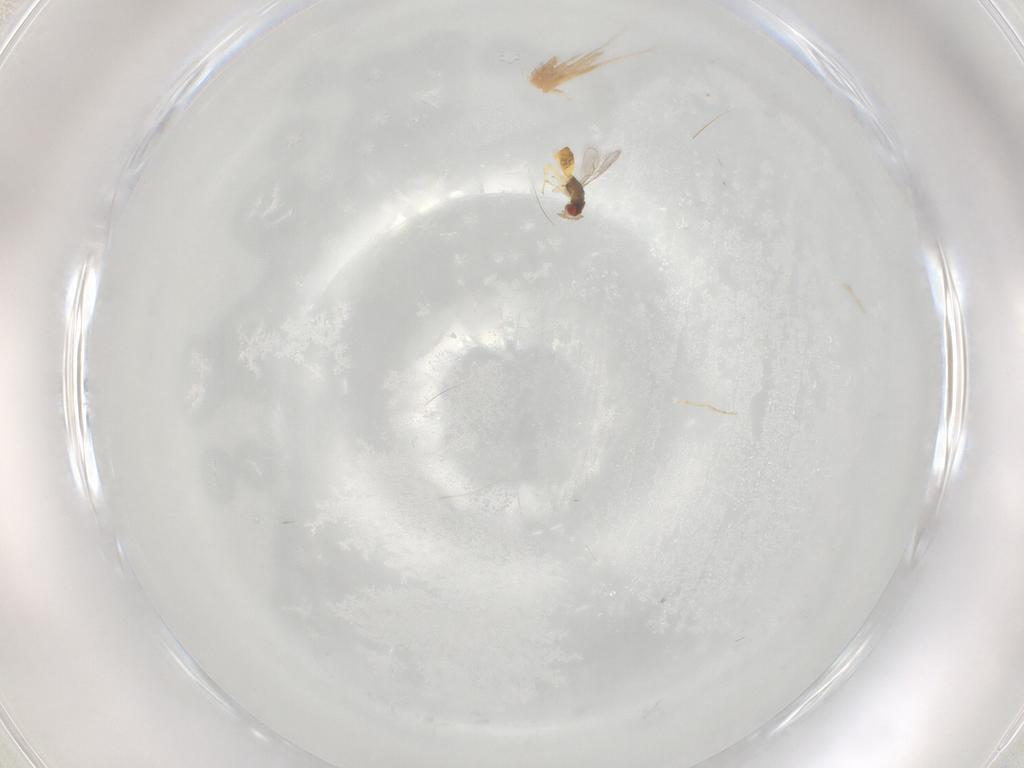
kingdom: Animalia
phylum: Arthropoda
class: Insecta
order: Hymenoptera
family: Eulophidae
